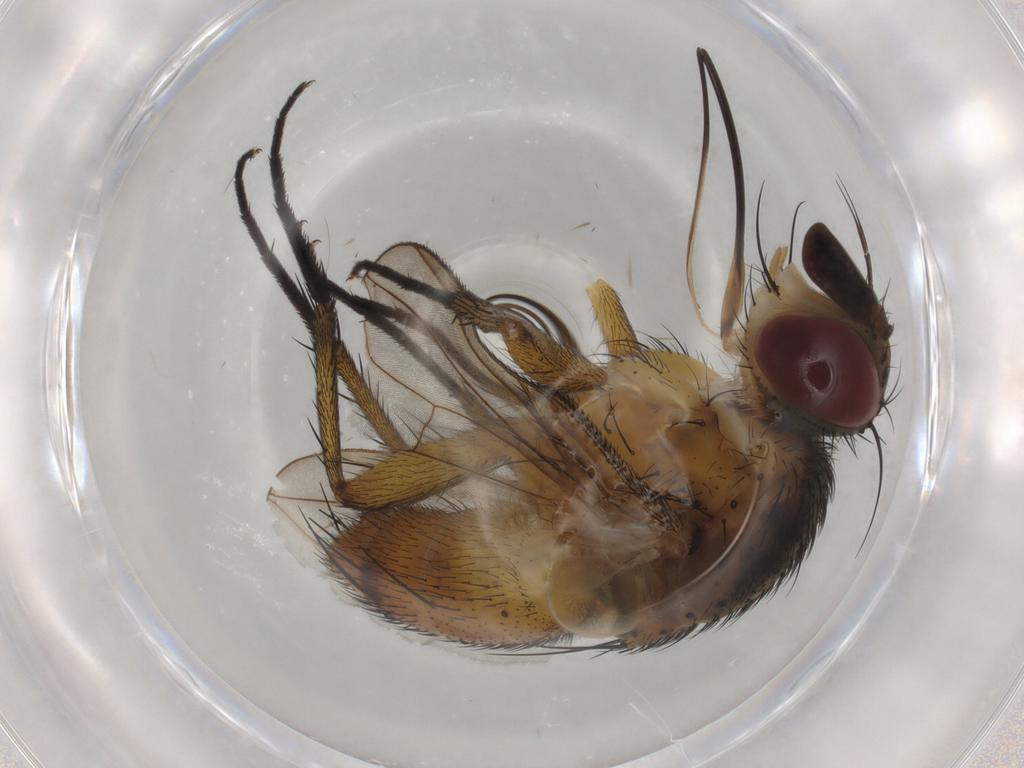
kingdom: Animalia
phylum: Arthropoda
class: Insecta
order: Diptera
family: Tachinidae
